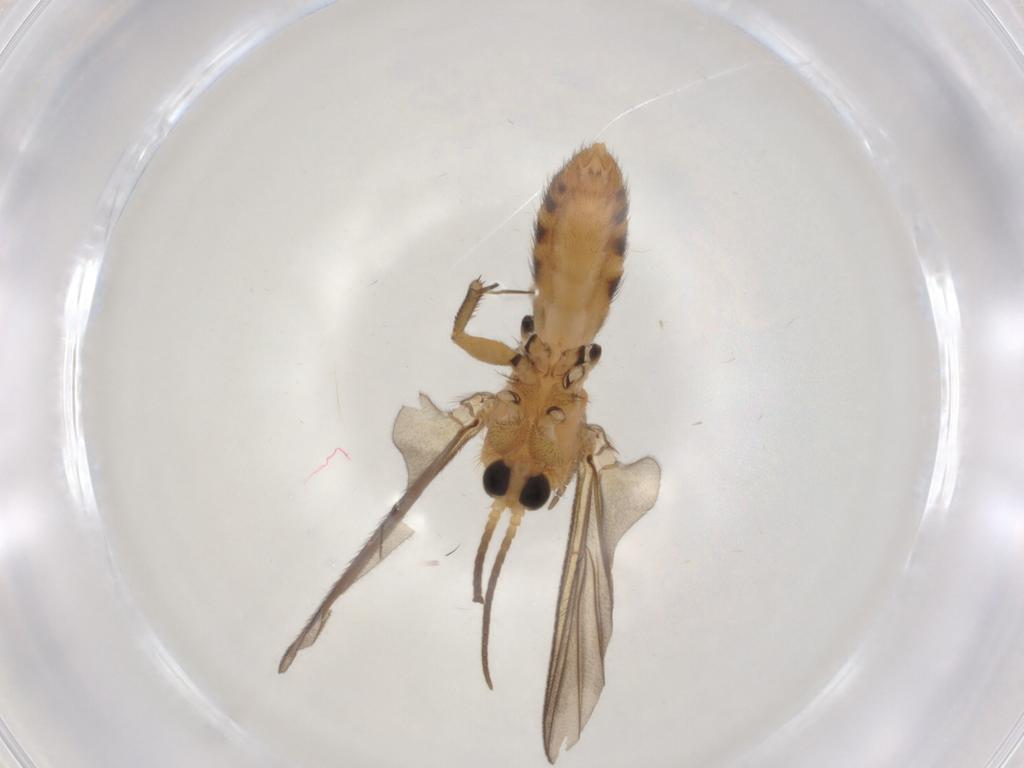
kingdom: Animalia
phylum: Arthropoda
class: Insecta
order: Diptera
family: Mycetophilidae
